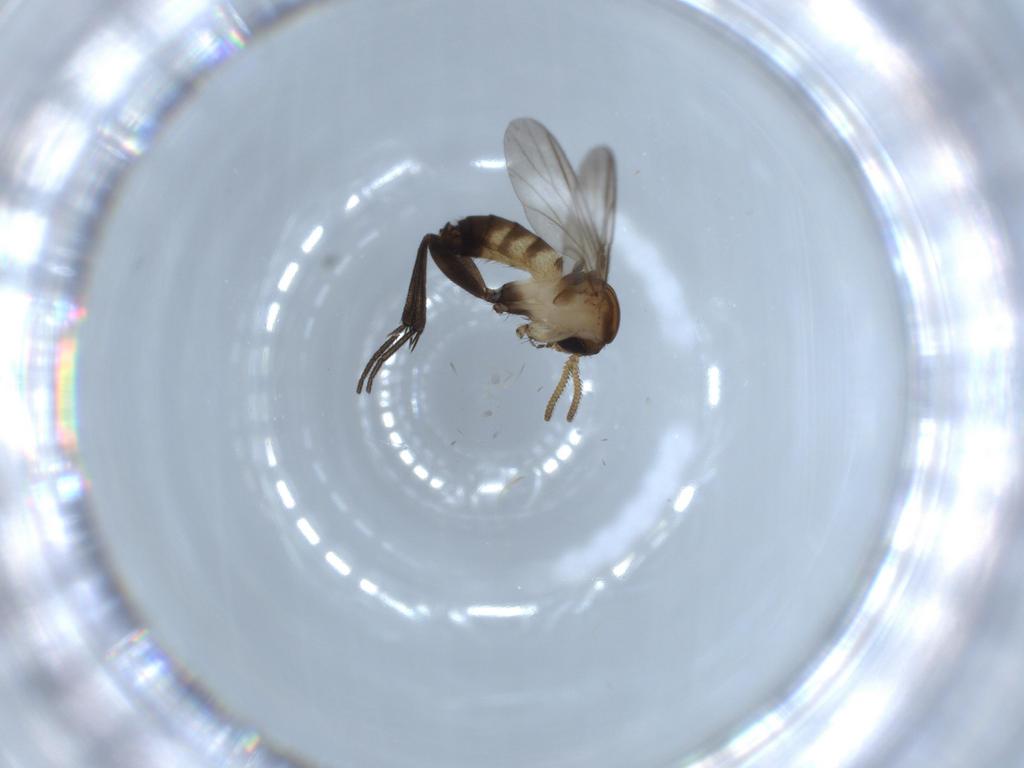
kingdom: Animalia
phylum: Arthropoda
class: Insecta
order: Diptera
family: Chironomidae
